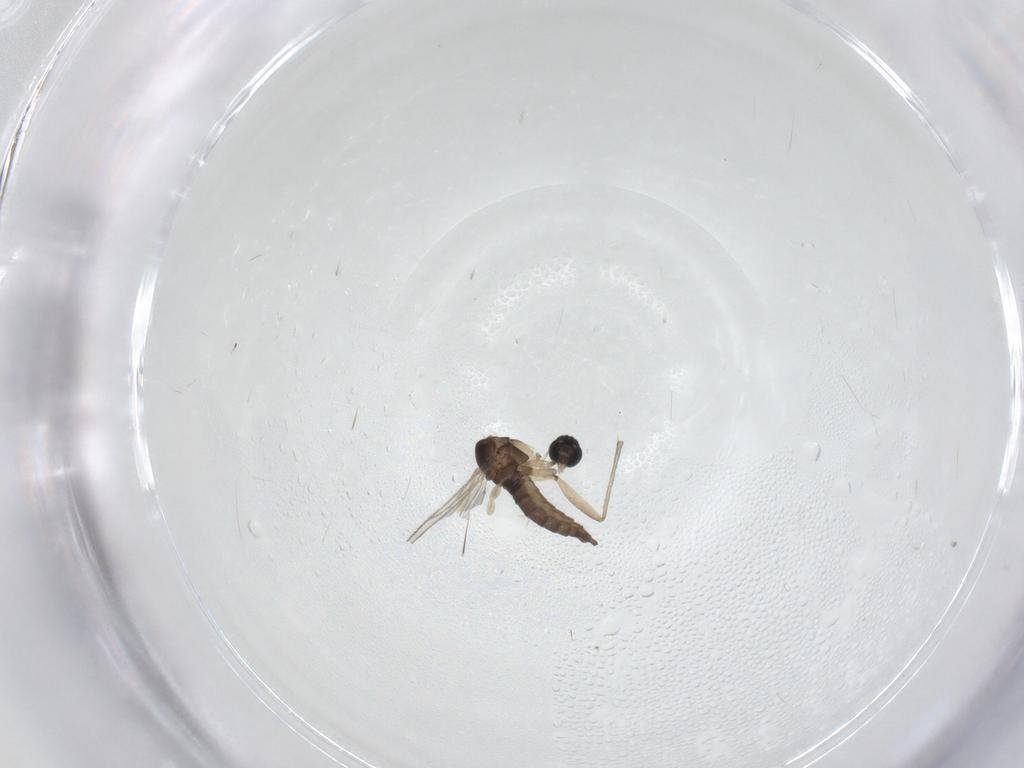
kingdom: Animalia
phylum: Arthropoda
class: Insecta
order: Diptera
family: Sciaridae
